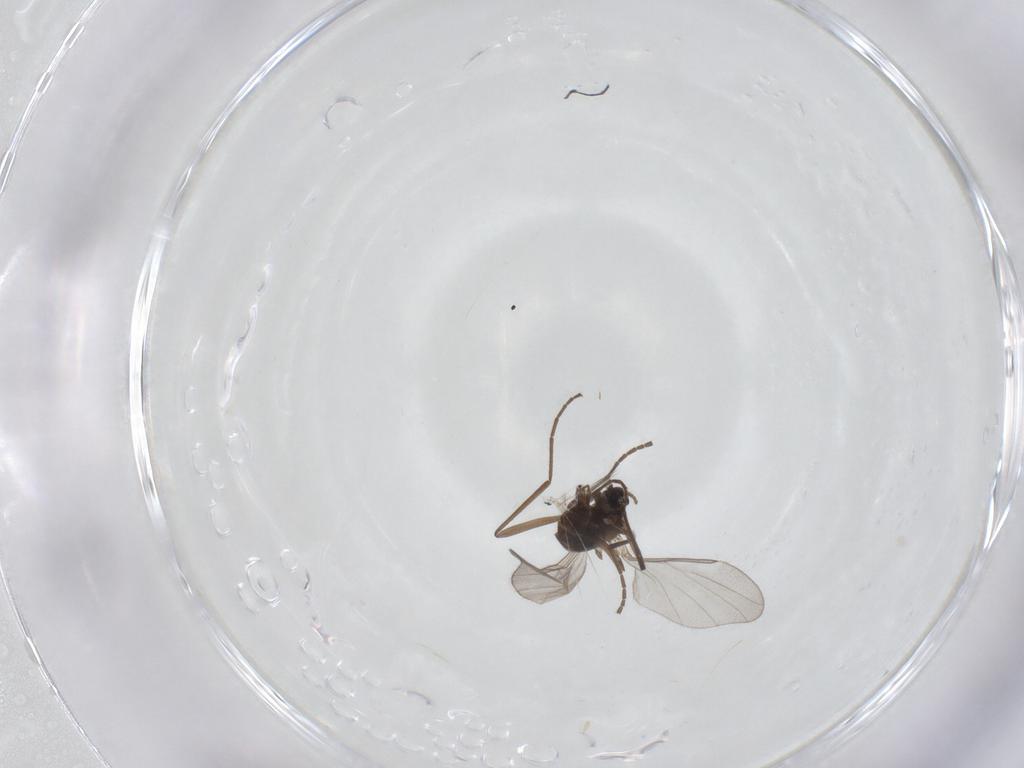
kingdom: Animalia
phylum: Arthropoda
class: Insecta
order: Diptera
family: Cecidomyiidae
